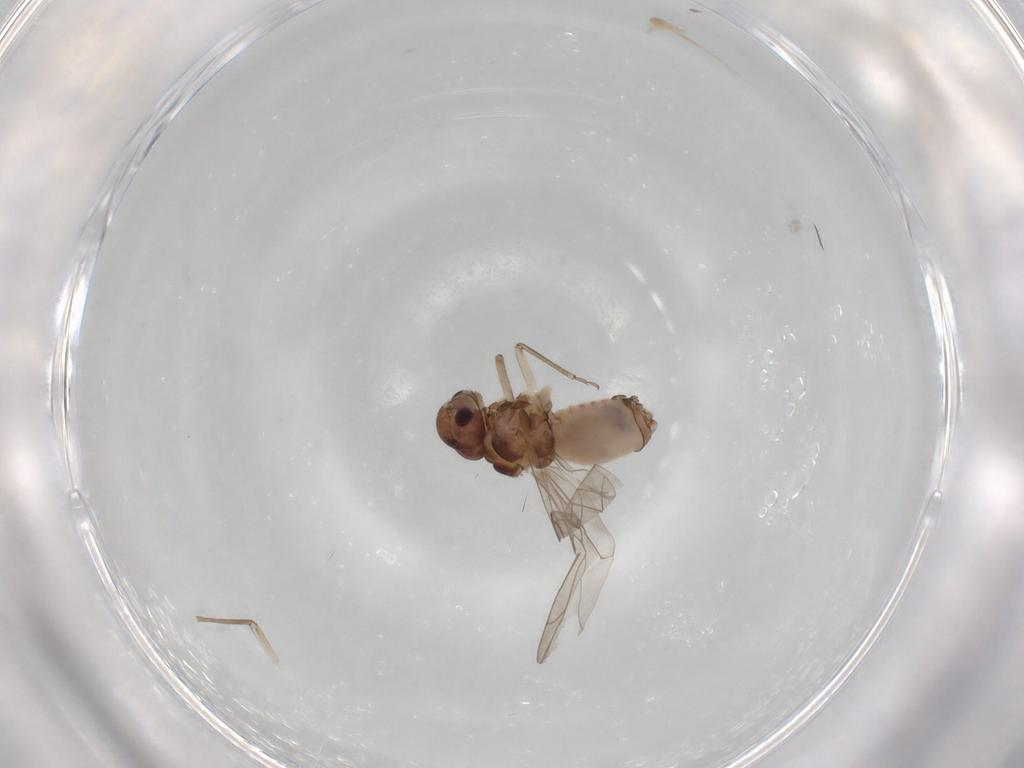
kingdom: Animalia
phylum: Arthropoda
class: Insecta
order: Psocodea
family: Peripsocidae
